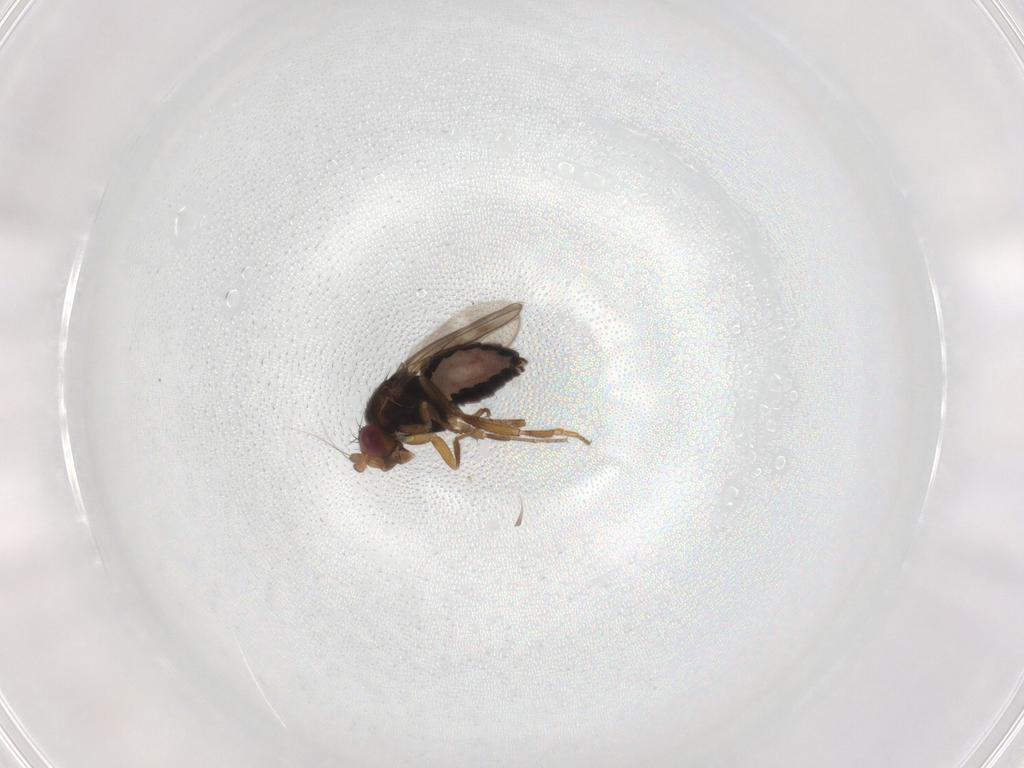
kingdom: Animalia
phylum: Arthropoda
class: Insecta
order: Diptera
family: Sphaeroceridae
